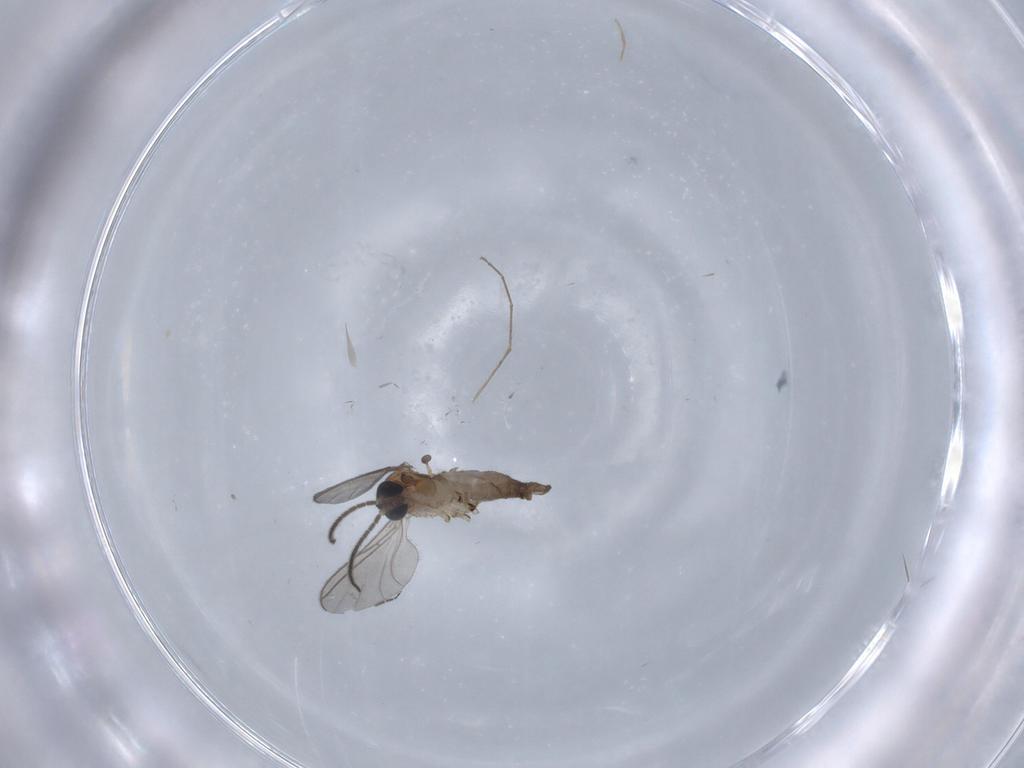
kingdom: Animalia
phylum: Arthropoda
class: Insecta
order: Diptera
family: Sciaridae
